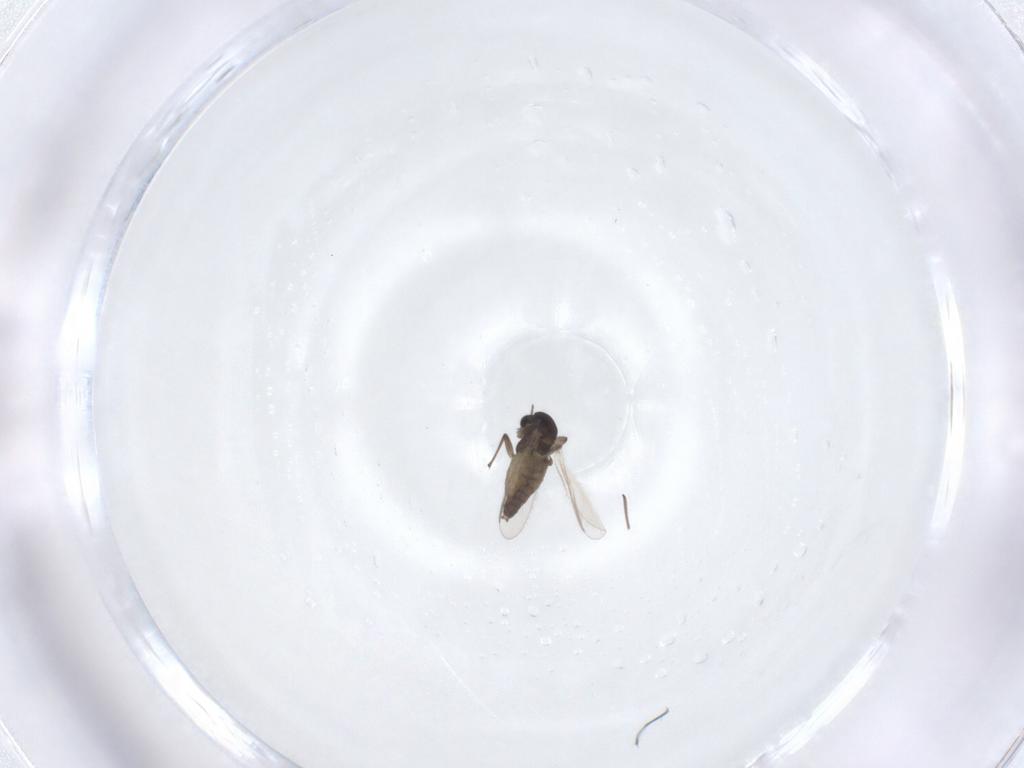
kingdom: Animalia
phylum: Arthropoda
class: Insecta
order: Diptera
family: Chironomidae
